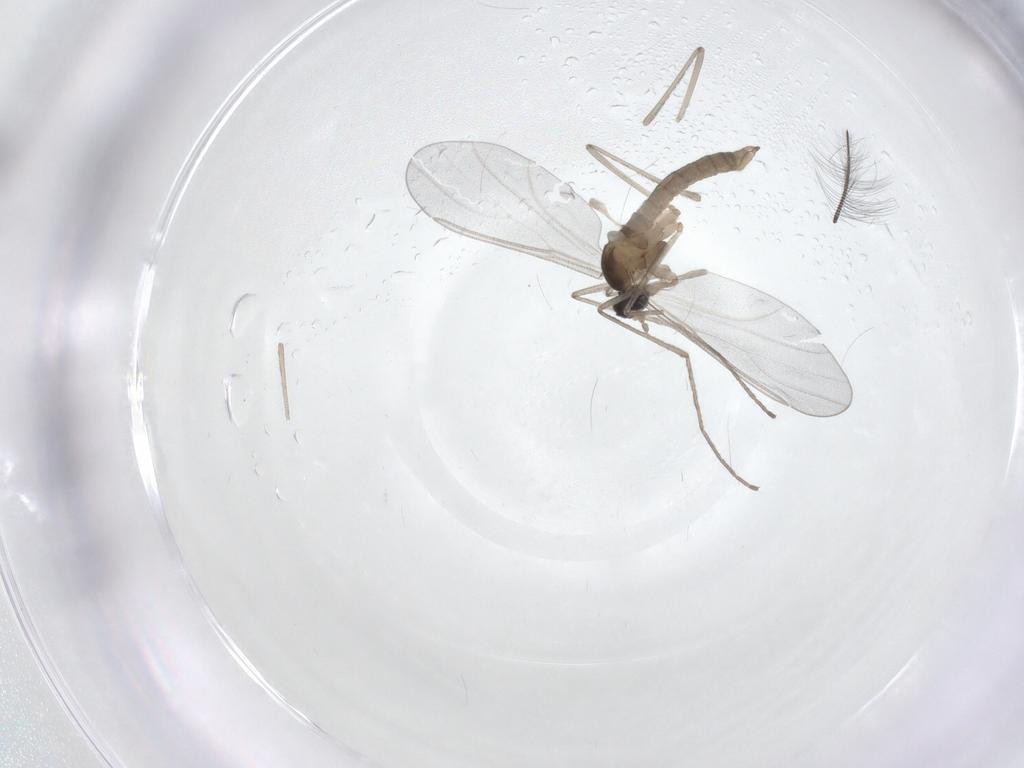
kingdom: Animalia
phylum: Arthropoda
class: Insecta
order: Diptera
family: Cecidomyiidae
